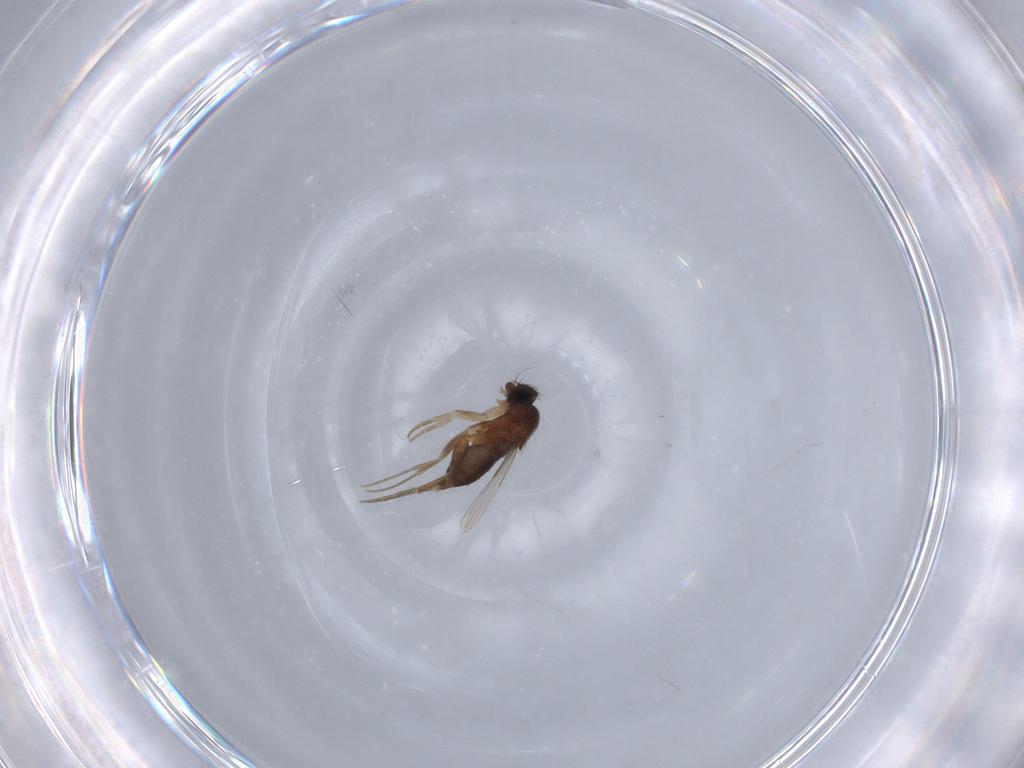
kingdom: Animalia
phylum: Arthropoda
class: Insecta
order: Diptera
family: Phoridae
